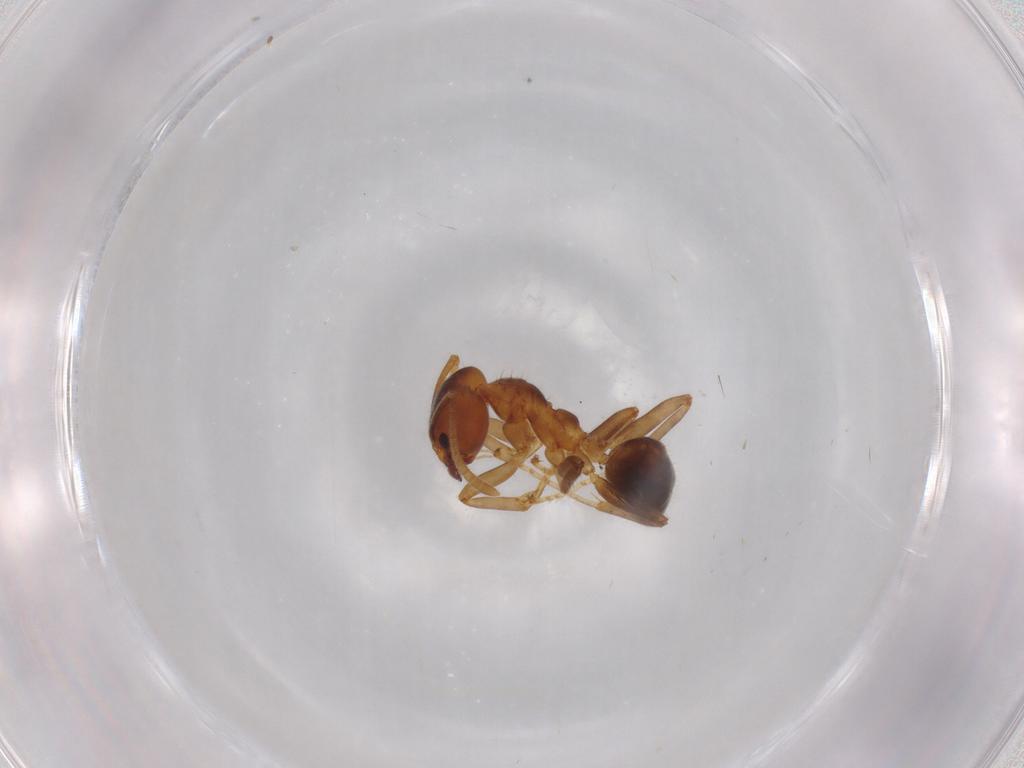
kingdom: Animalia
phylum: Arthropoda
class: Insecta
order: Hymenoptera
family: Formicidae
